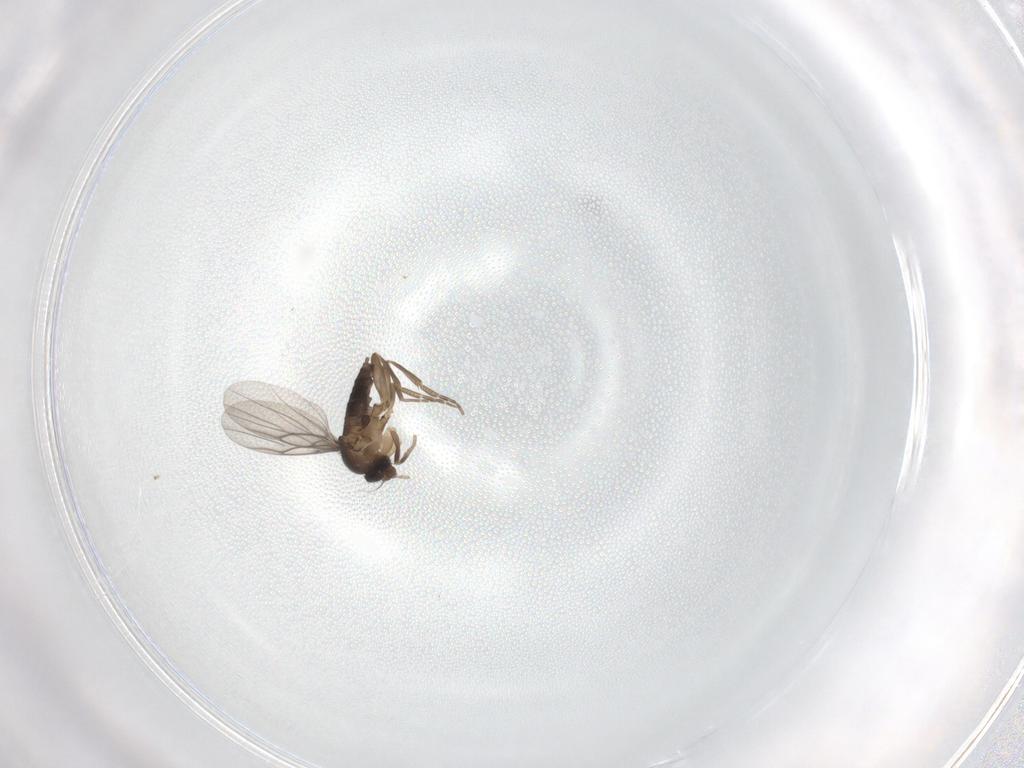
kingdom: Animalia
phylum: Arthropoda
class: Insecta
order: Diptera
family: Phoridae
